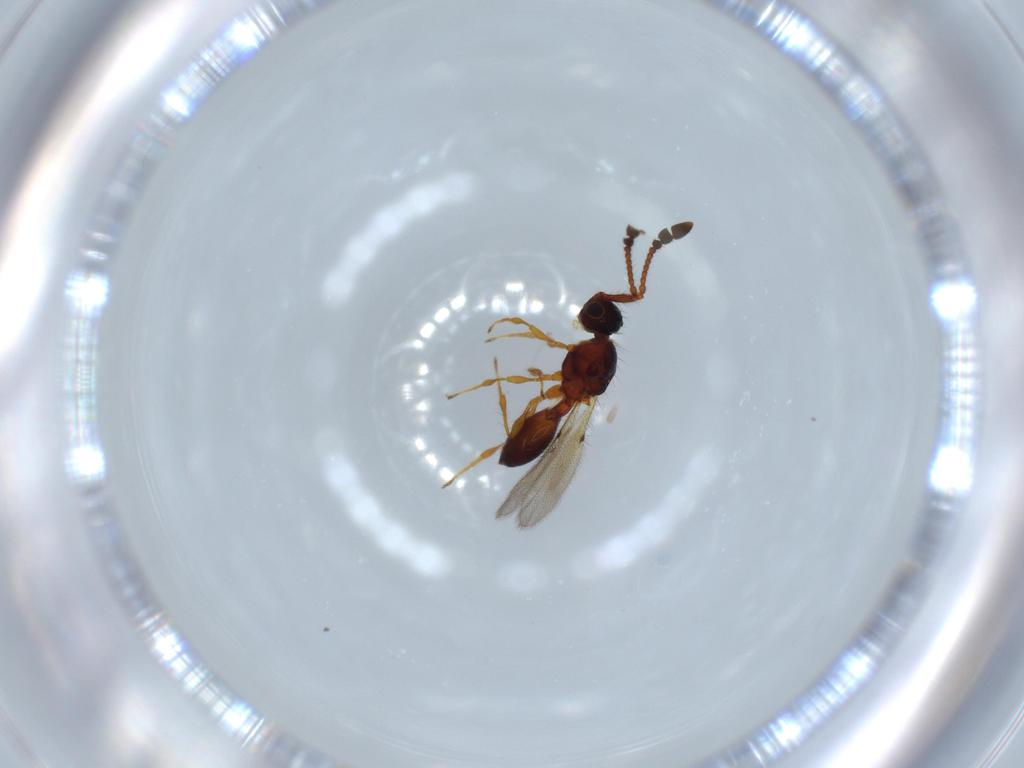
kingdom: Animalia
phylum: Arthropoda
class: Insecta
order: Hymenoptera
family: Diapriidae
